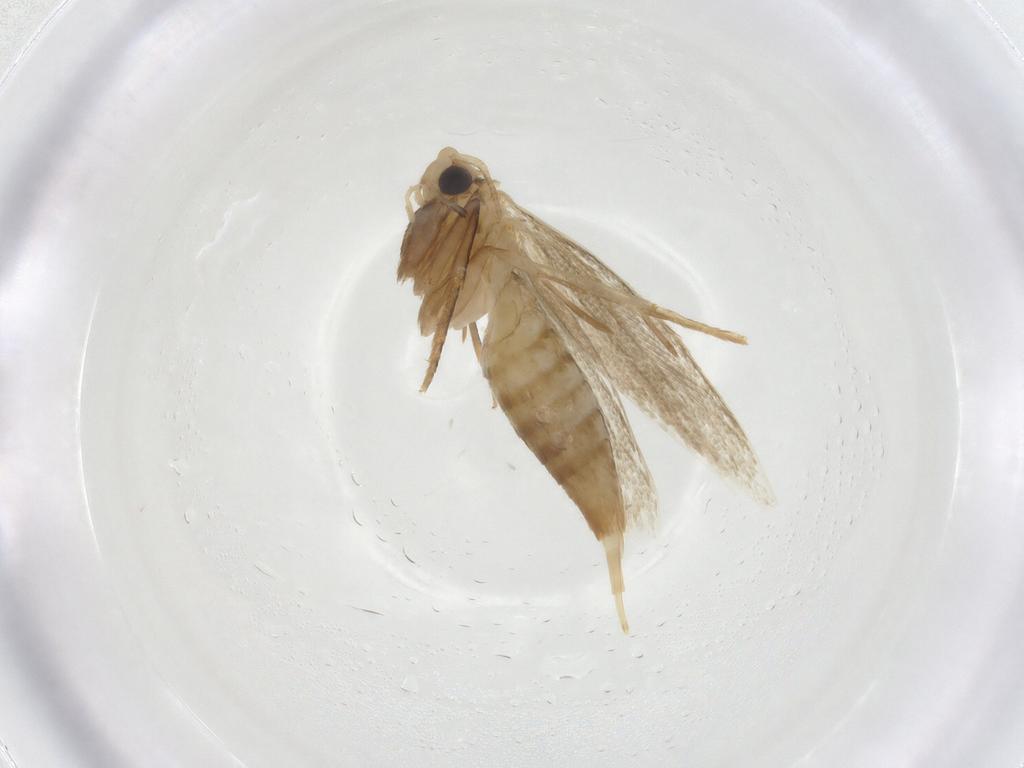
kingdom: Animalia
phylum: Arthropoda
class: Insecta
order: Lepidoptera
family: Tineidae
